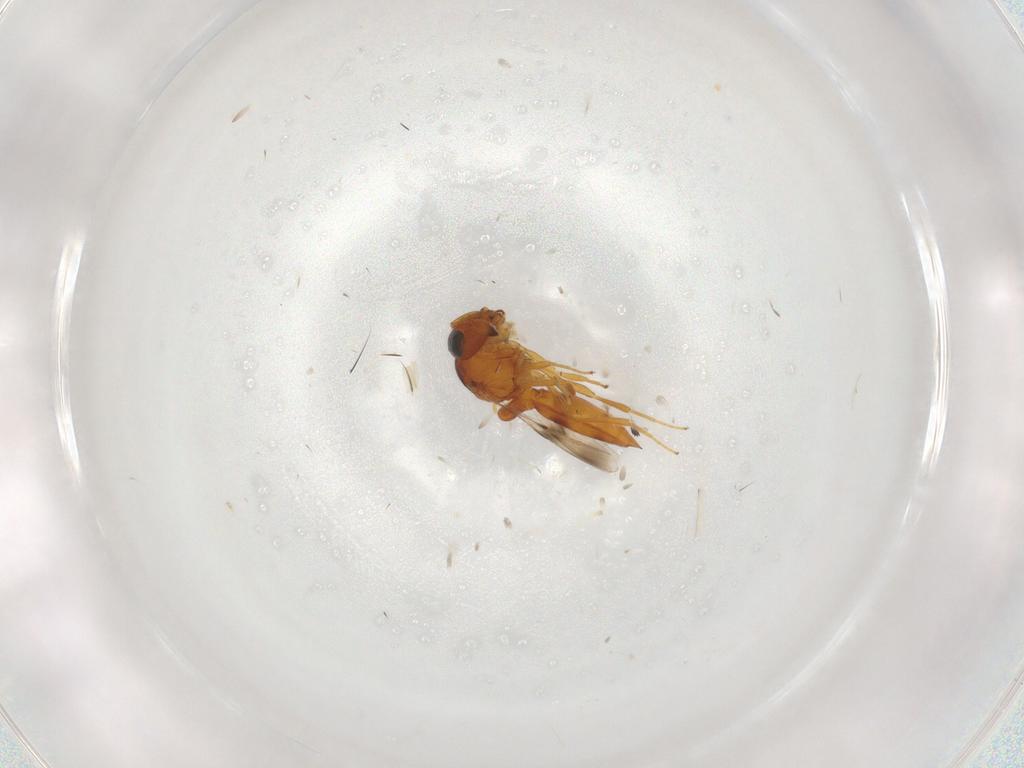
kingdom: Animalia
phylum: Arthropoda
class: Insecta
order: Hymenoptera
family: Scelionidae
